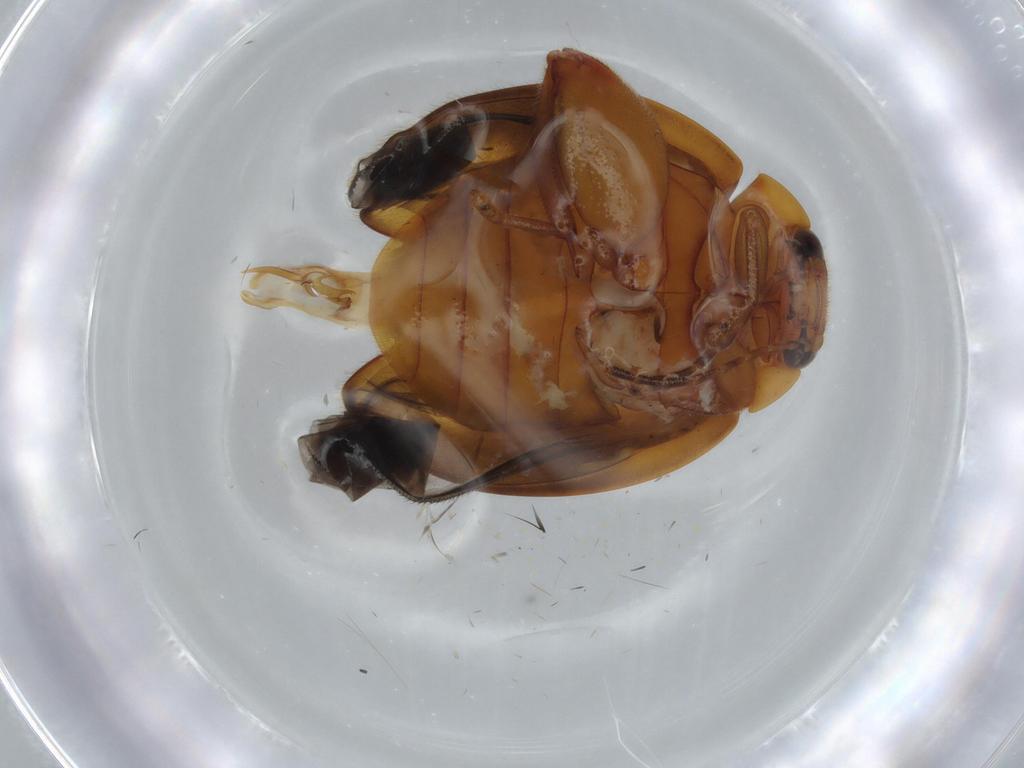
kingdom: Animalia
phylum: Arthropoda
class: Insecta
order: Coleoptera
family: Scirtidae
